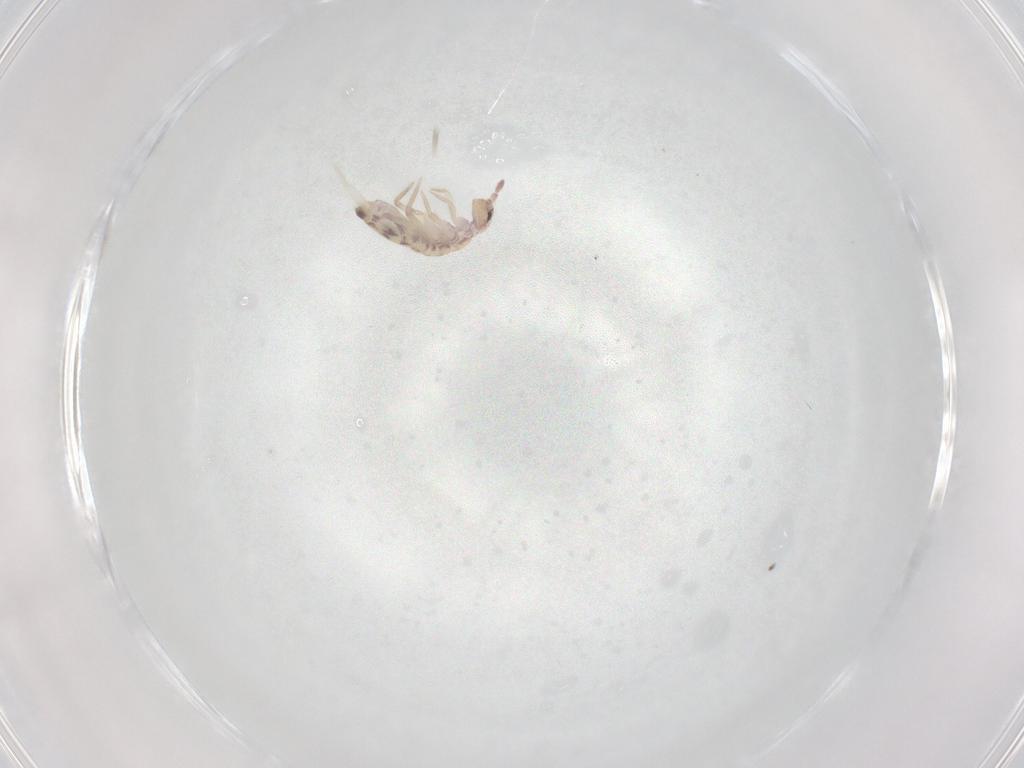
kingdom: Animalia
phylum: Arthropoda
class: Collembola
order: Entomobryomorpha
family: Entomobryidae
